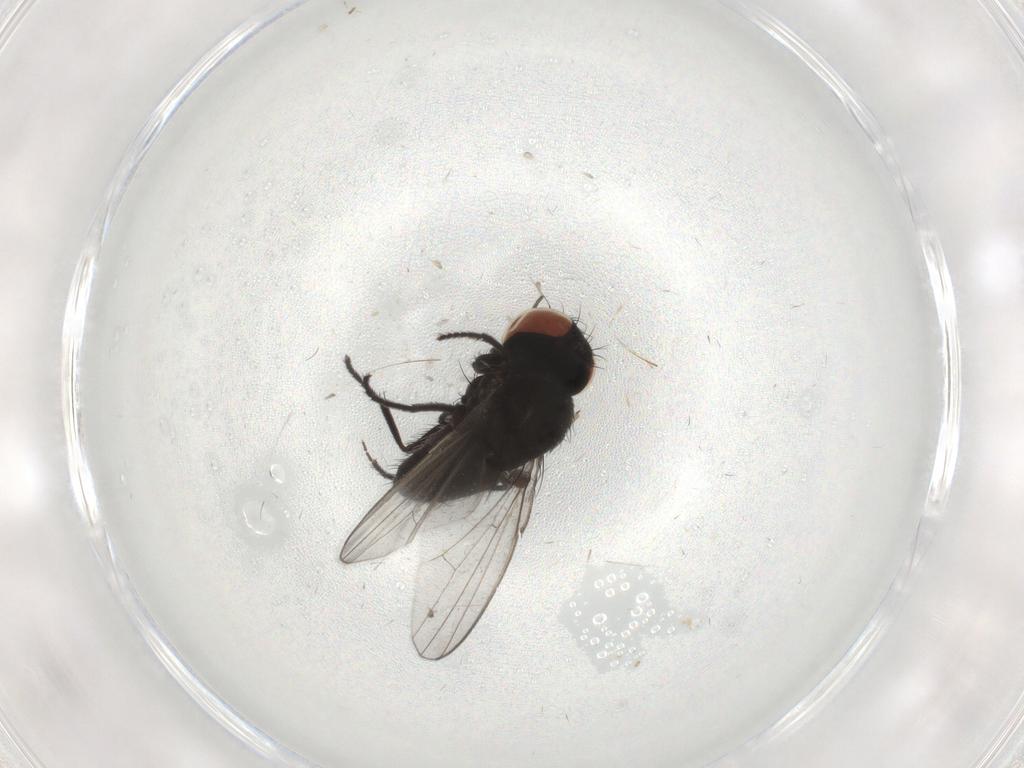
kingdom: Animalia
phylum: Arthropoda
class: Insecta
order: Diptera
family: Milichiidae
